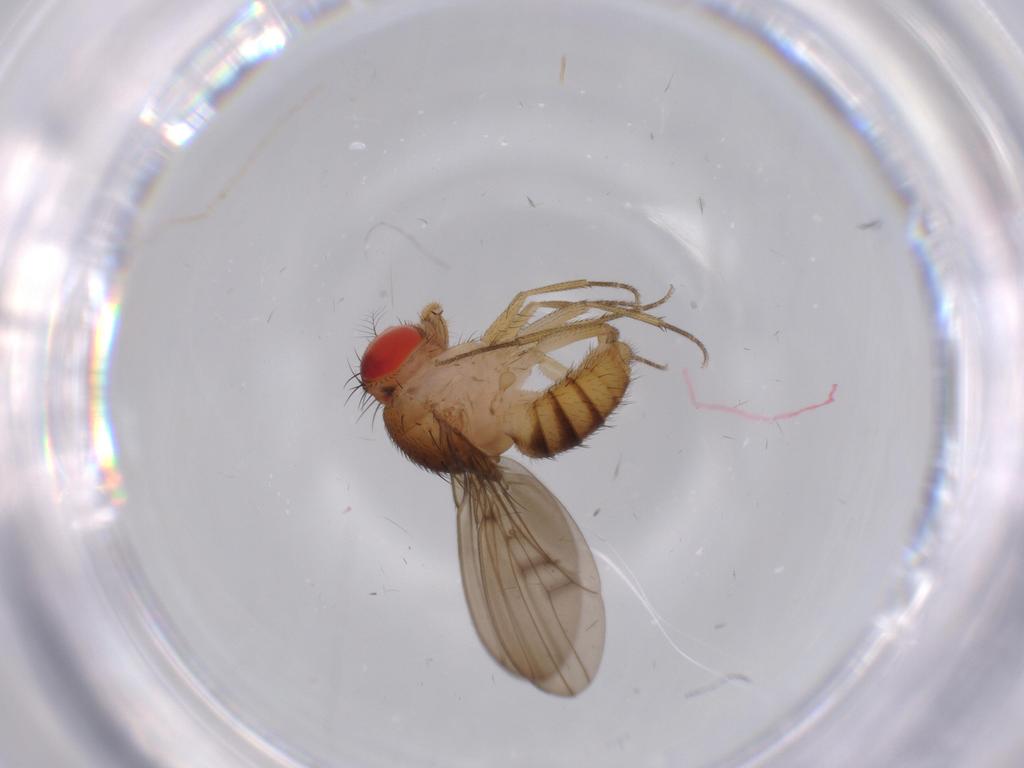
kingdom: Animalia
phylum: Arthropoda
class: Insecta
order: Diptera
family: Drosophilidae
